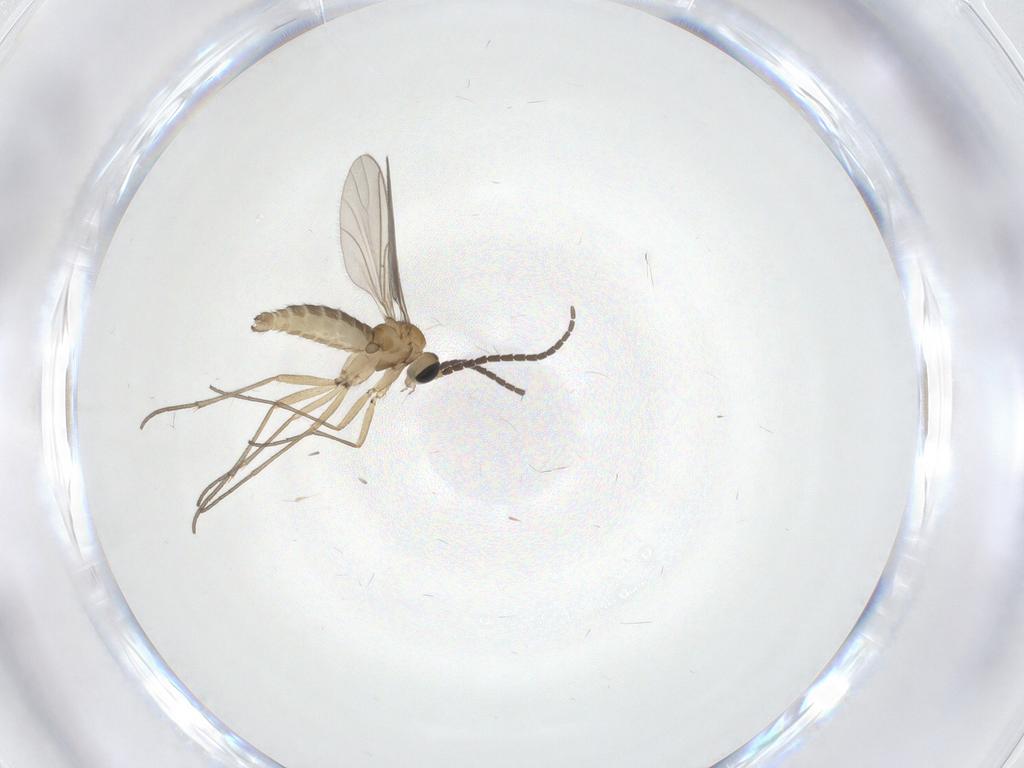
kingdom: Animalia
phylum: Arthropoda
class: Insecta
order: Diptera
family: Sciaridae
